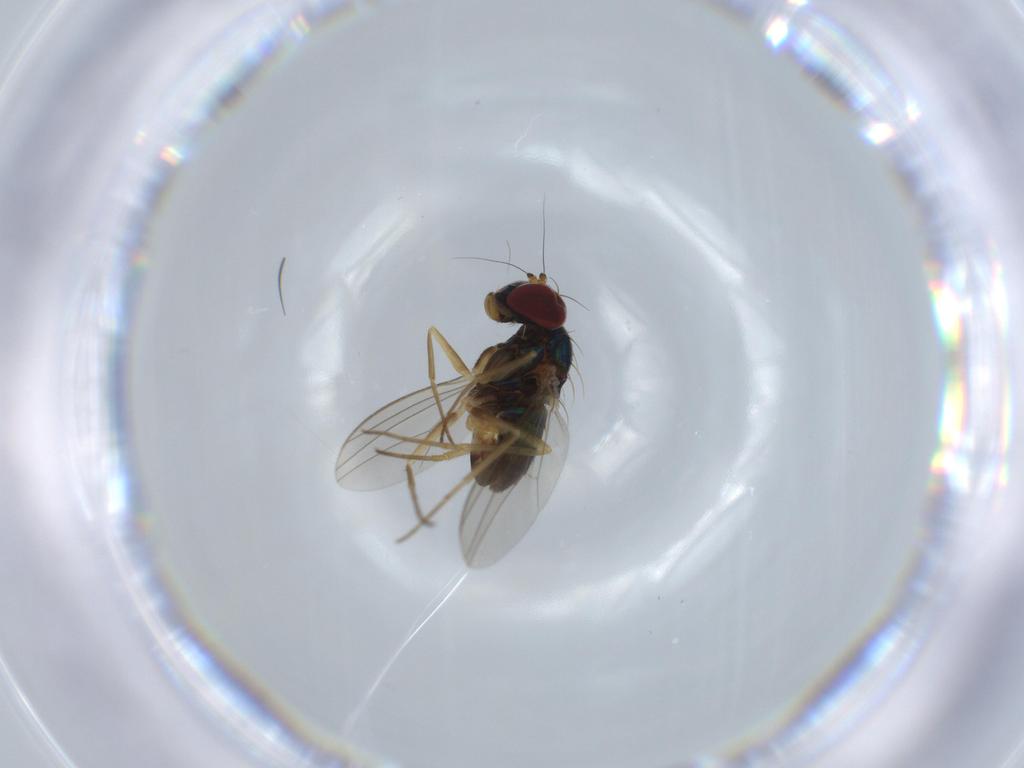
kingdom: Animalia
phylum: Arthropoda
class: Insecta
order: Diptera
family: Dolichopodidae
